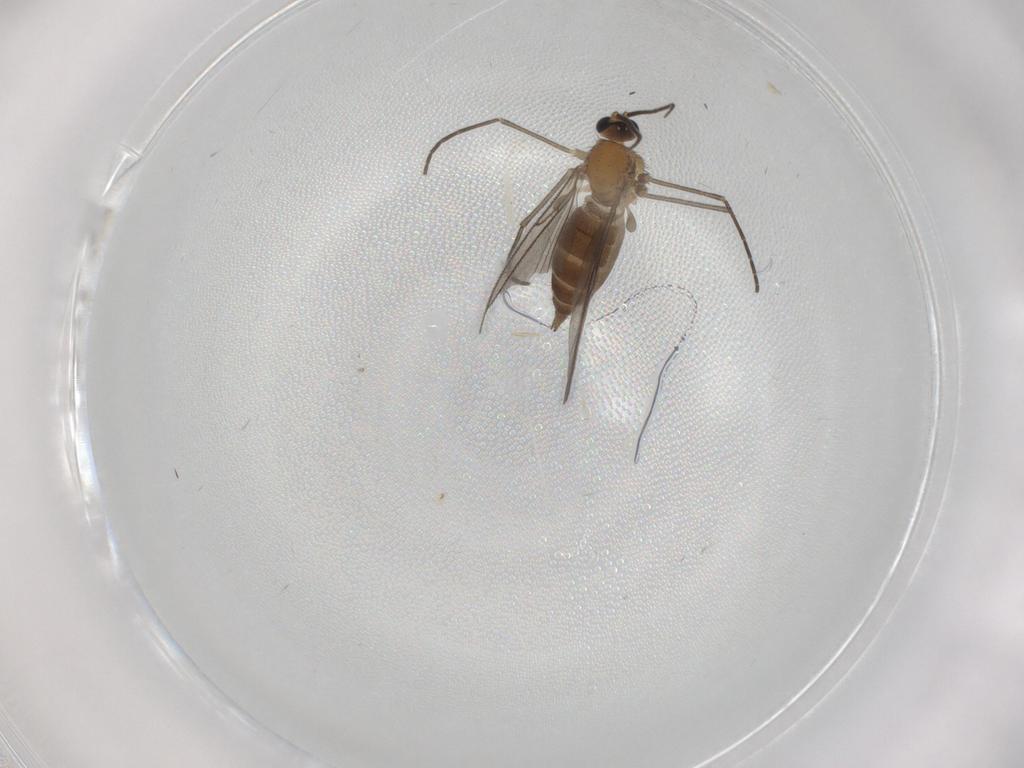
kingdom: Animalia
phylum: Arthropoda
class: Insecta
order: Diptera
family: Sciaridae
